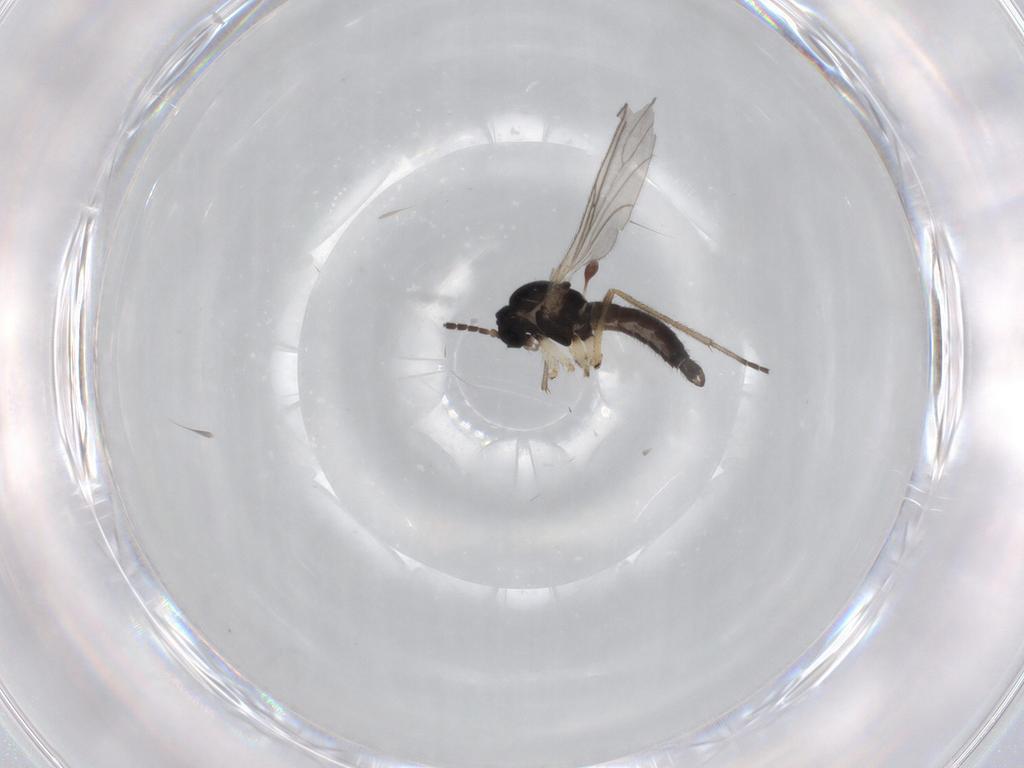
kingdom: Animalia
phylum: Arthropoda
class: Insecta
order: Diptera
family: Sciaridae
